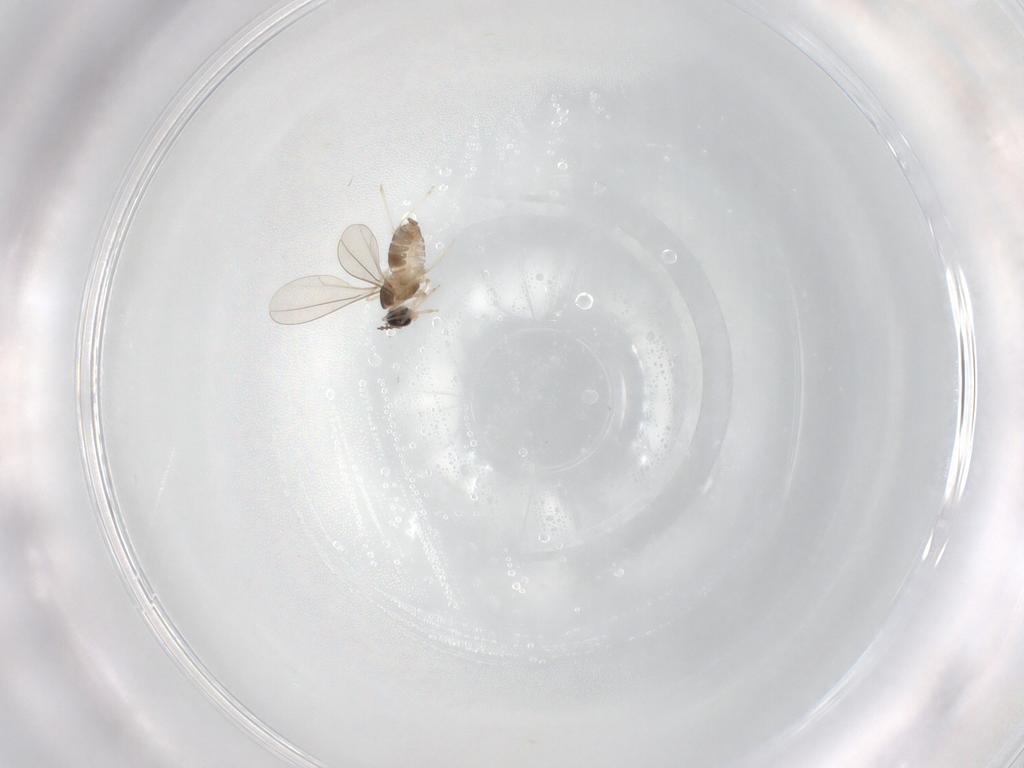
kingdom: Animalia
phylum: Arthropoda
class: Insecta
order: Diptera
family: Cecidomyiidae
